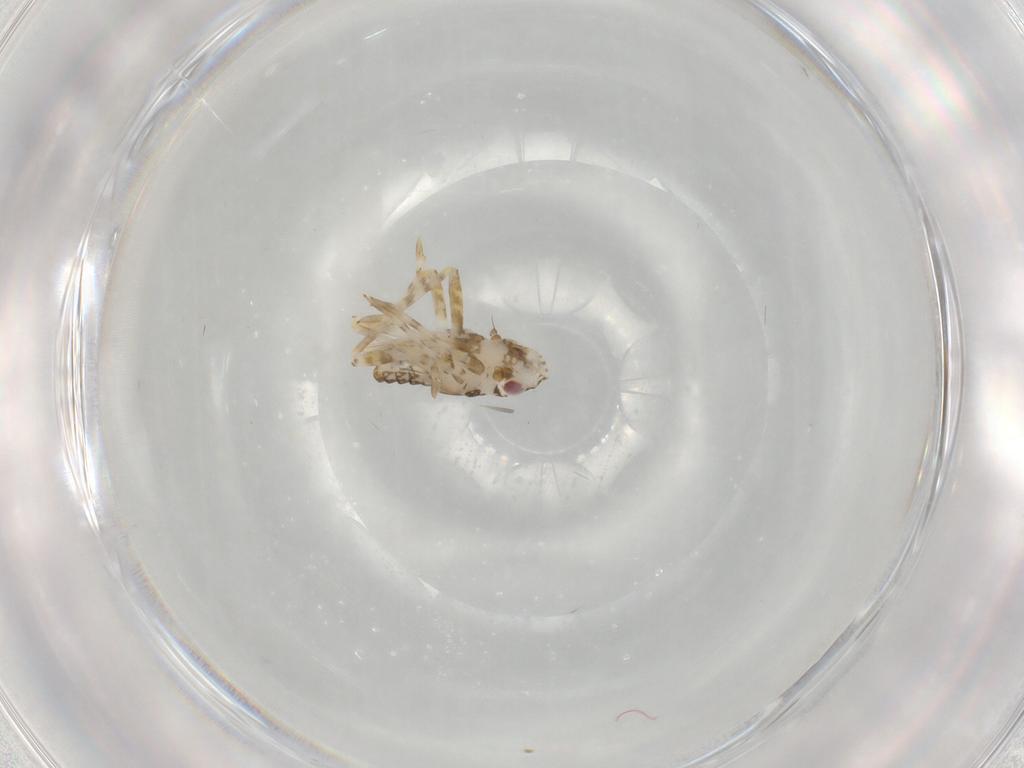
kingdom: Animalia
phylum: Arthropoda
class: Insecta
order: Hemiptera
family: Dictyopharidae
